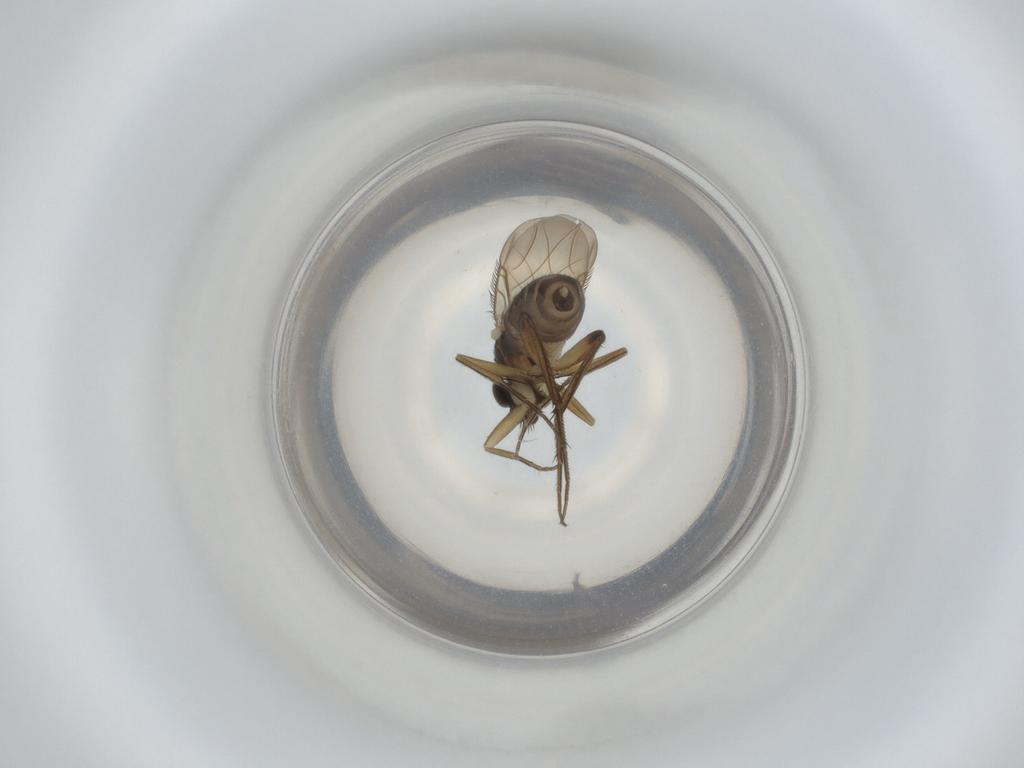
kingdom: Animalia
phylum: Arthropoda
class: Insecta
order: Diptera
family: Phoridae
